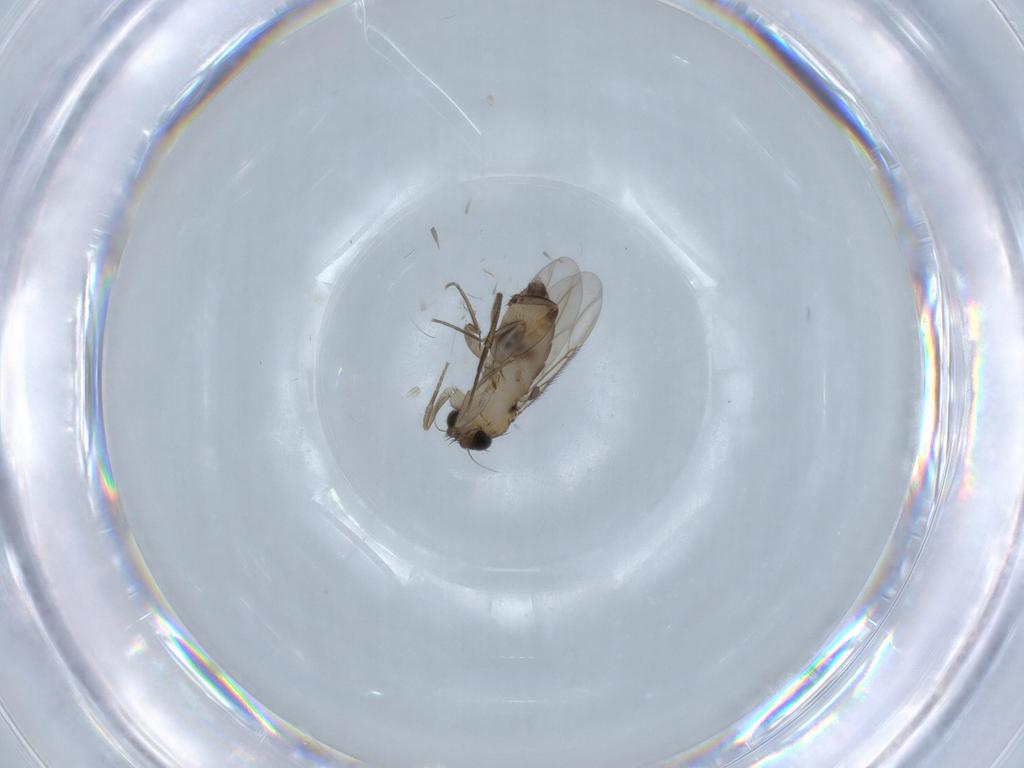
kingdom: Animalia
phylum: Arthropoda
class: Insecta
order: Diptera
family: Phoridae
